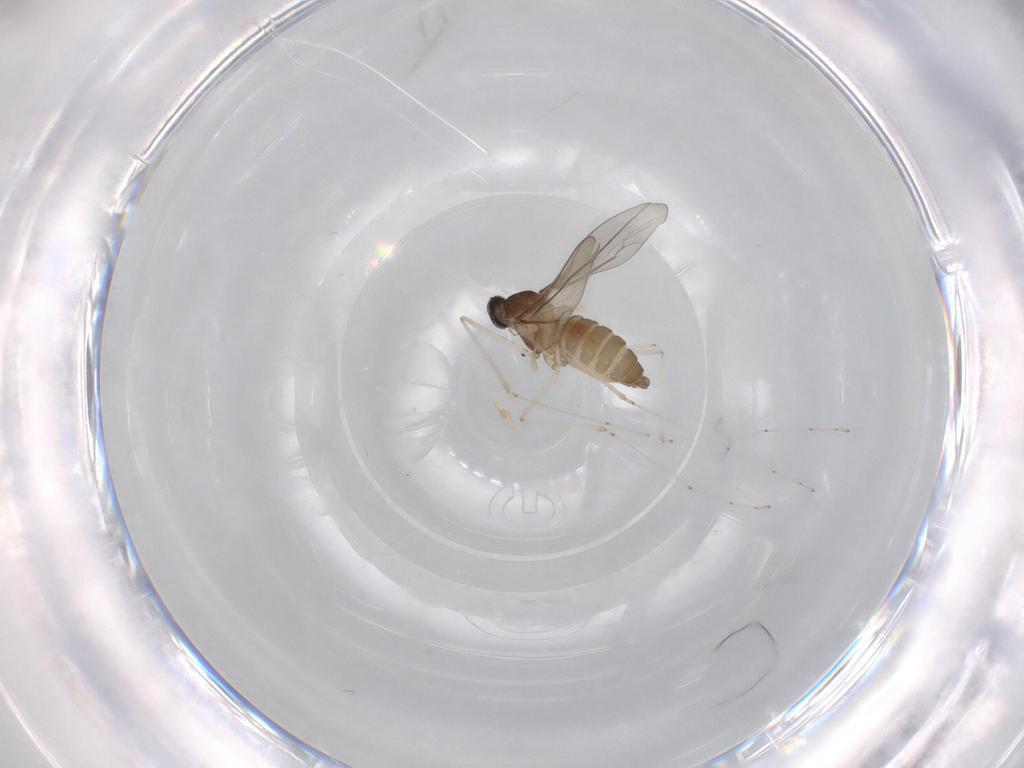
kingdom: Animalia
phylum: Arthropoda
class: Insecta
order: Diptera
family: Cecidomyiidae
